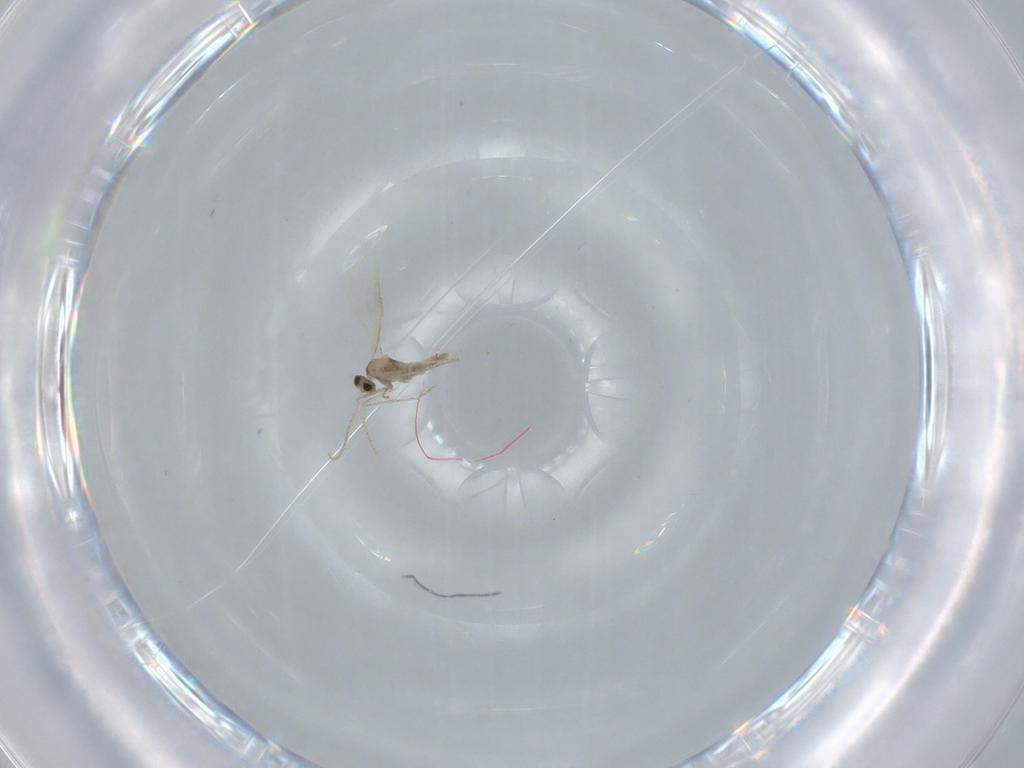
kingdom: Animalia
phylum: Arthropoda
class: Insecta
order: Diptera
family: Cecidomyiidae
